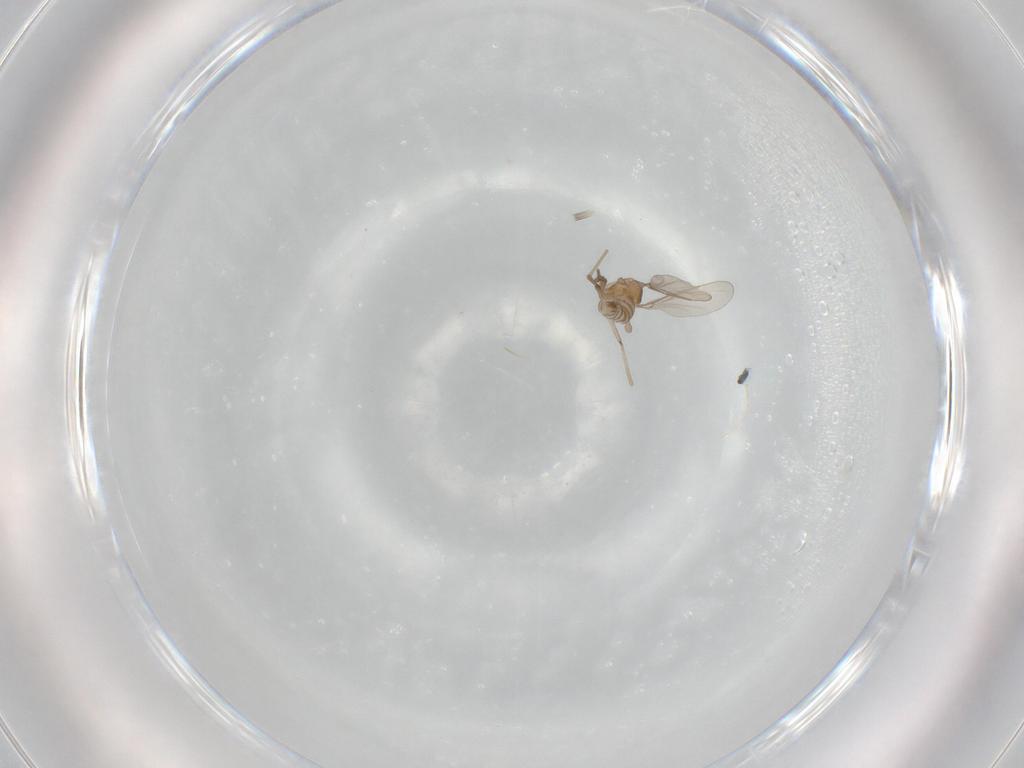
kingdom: Animalia
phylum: Arthropoda
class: Insecta
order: Diptera
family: Cecidomyiidae
